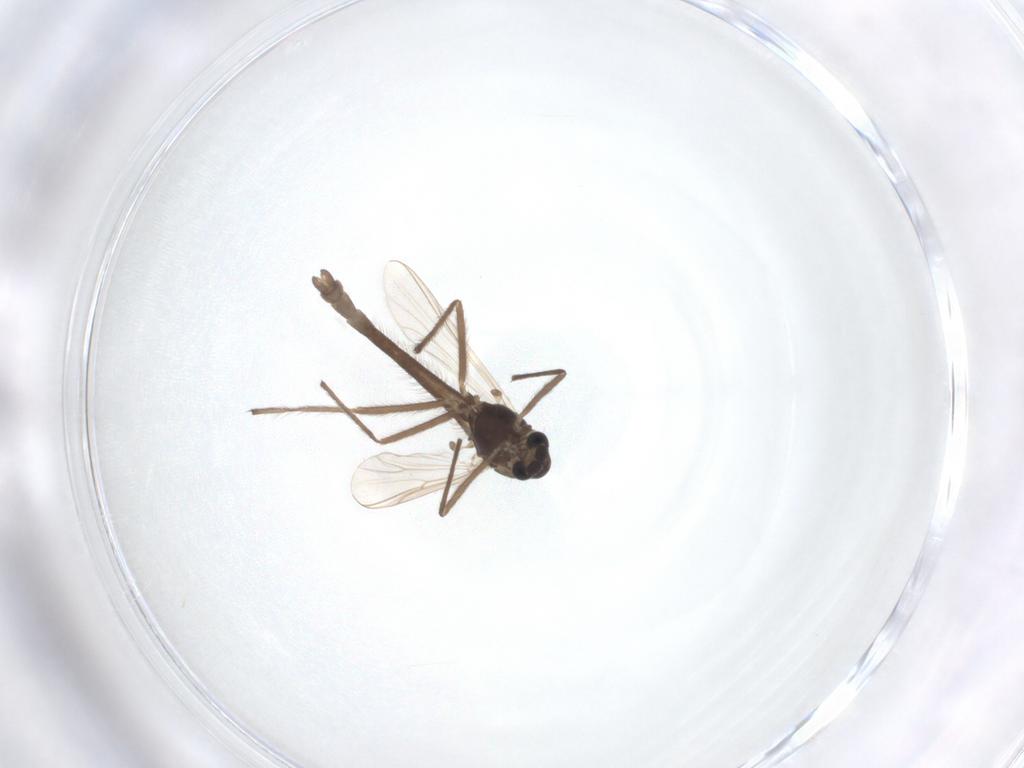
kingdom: Animalia
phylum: Arthropoda
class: Insecta
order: Diptera
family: Chironomidae
